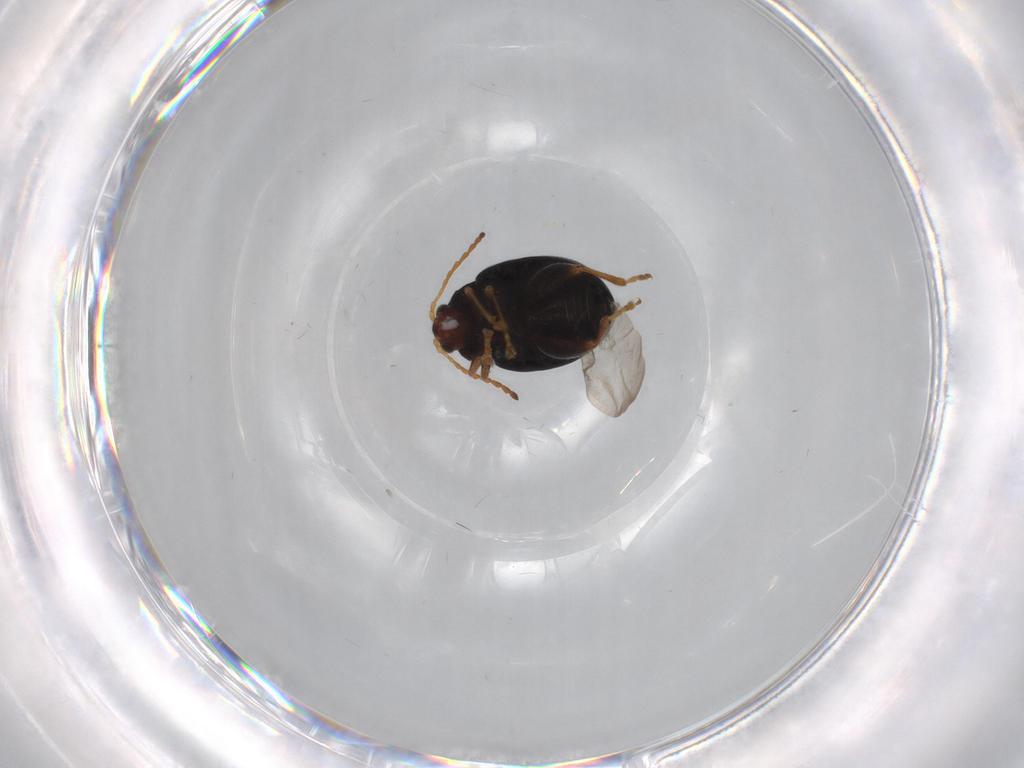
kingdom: Animalia
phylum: Arthropoda
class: Insecta
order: Coleoptera
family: Chrysomelidae
